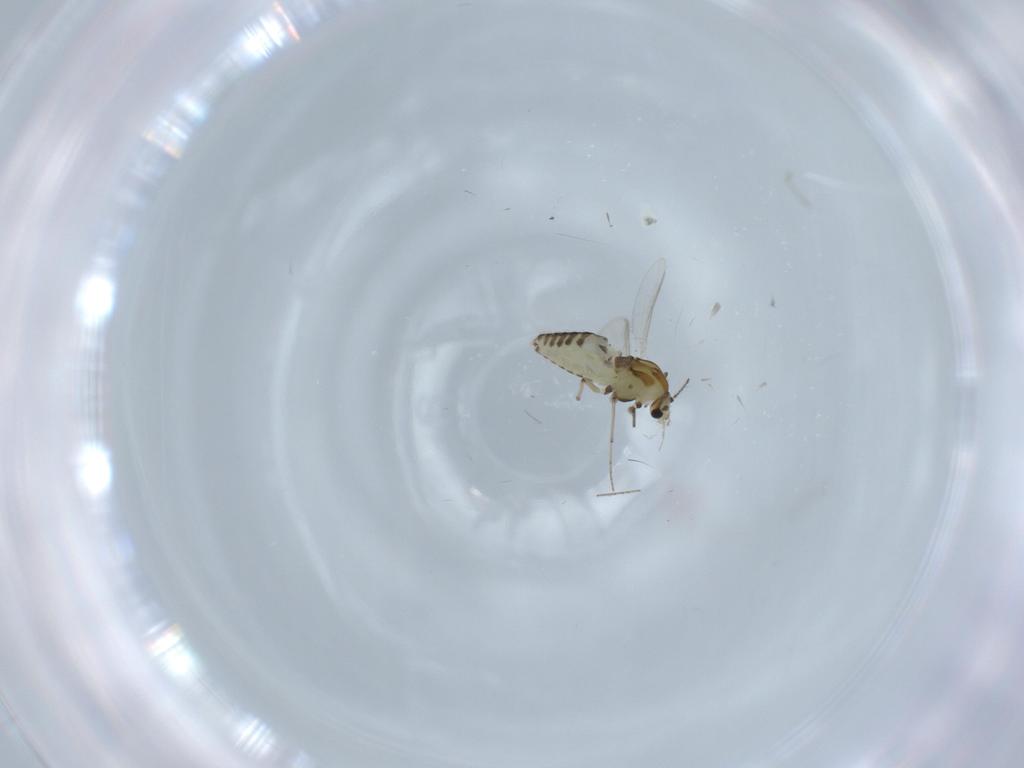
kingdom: Animalia
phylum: Arthropoda
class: Insecta
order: Diptera
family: Chironomidae
